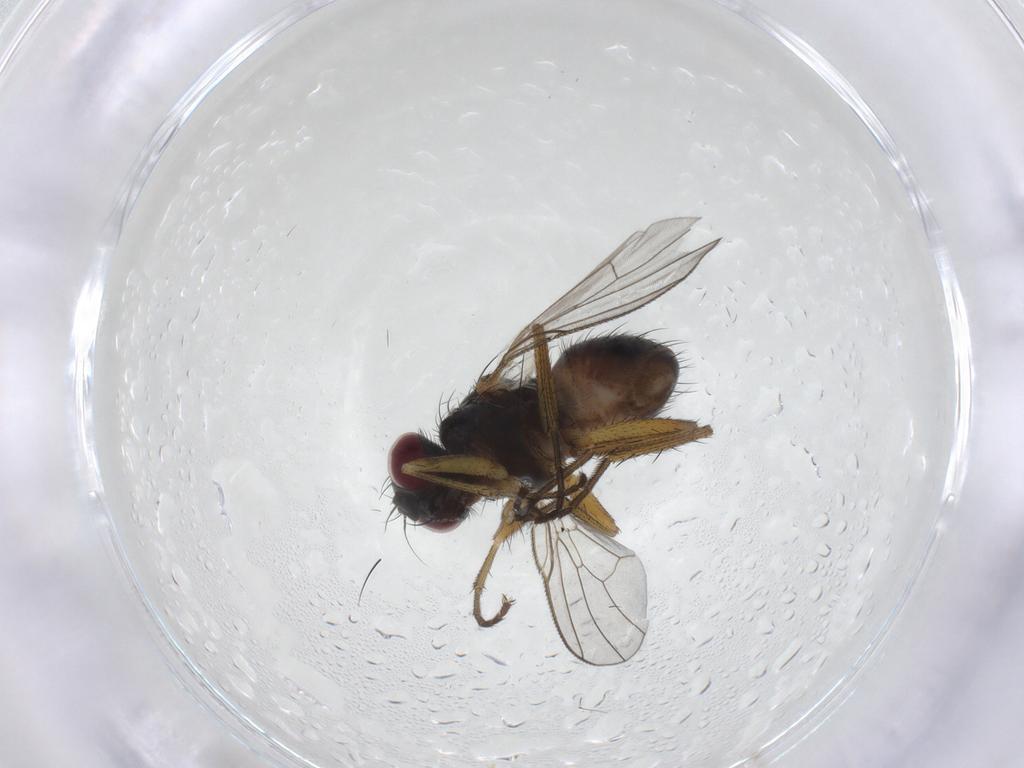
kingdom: Animalia
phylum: Arthropoda
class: Insecta
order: Diptera
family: Muscidae
